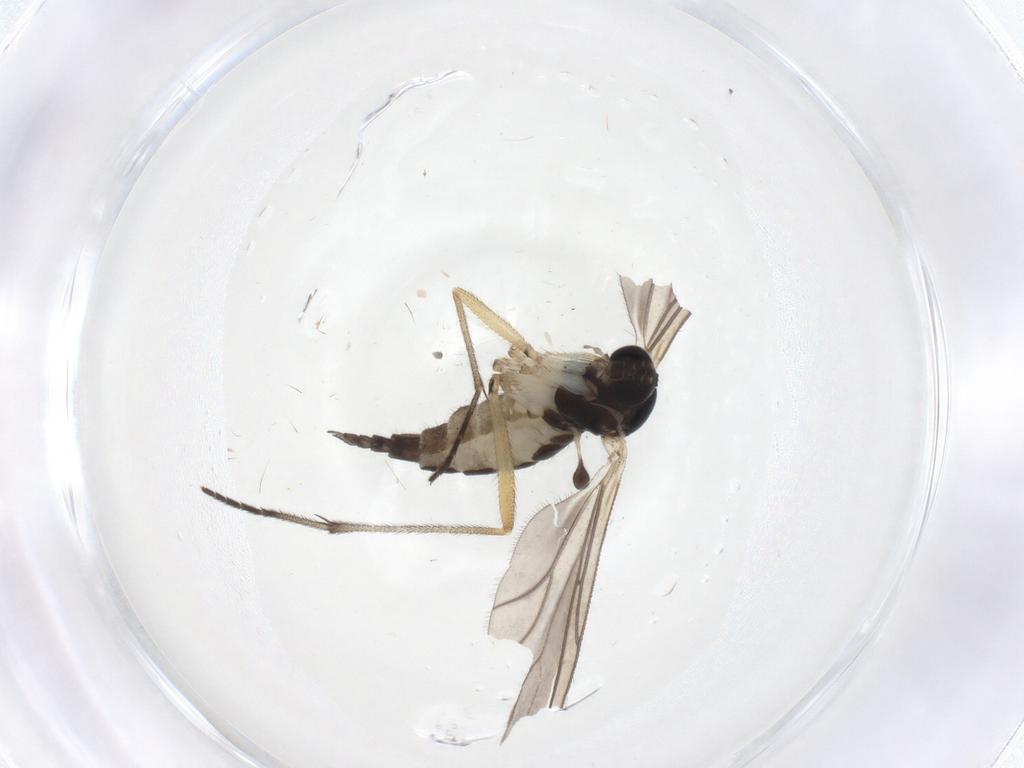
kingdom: Animalia
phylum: Arthropoda
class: Insecta
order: Diptera
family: Sciaridae
